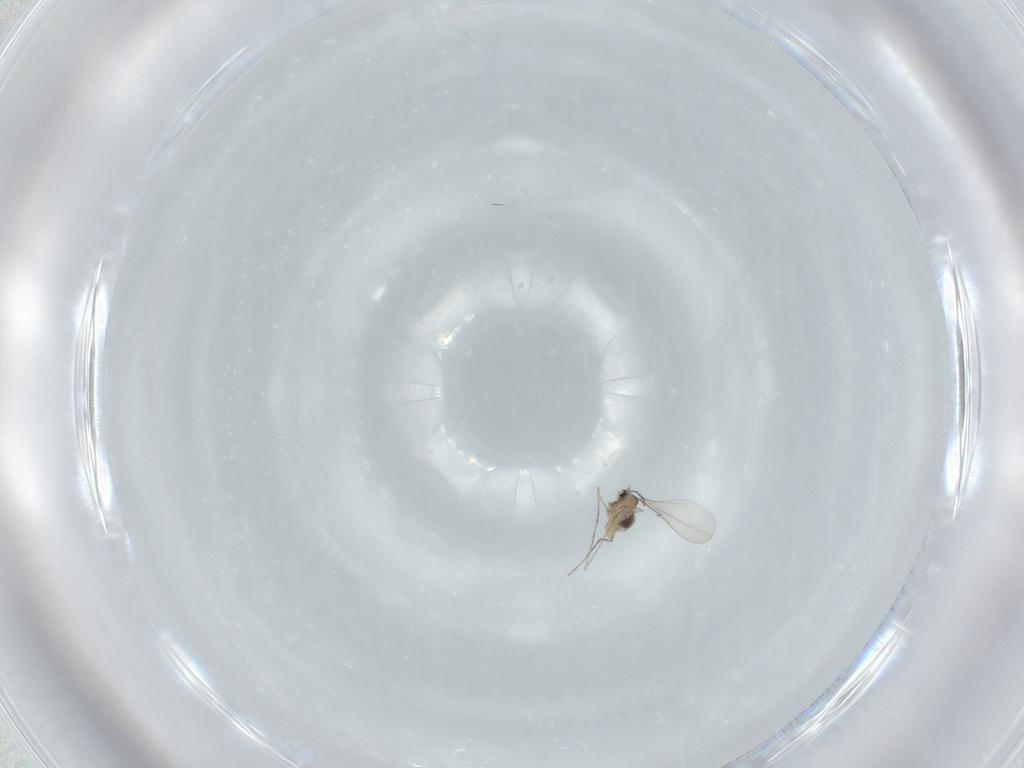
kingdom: Animalia
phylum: Arthropoda
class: Insecta
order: Diptera
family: Cecidomyiidae
